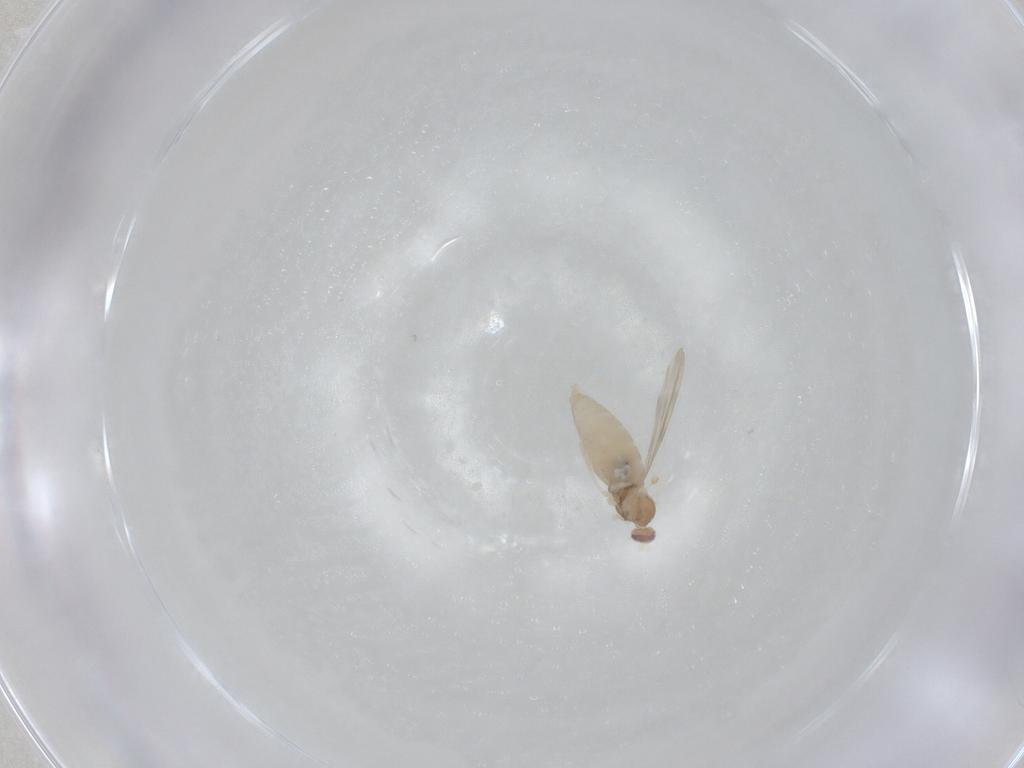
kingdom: Animalia
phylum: Arthropoda
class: Insecta
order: Diptera
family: Cecidomyiidae
